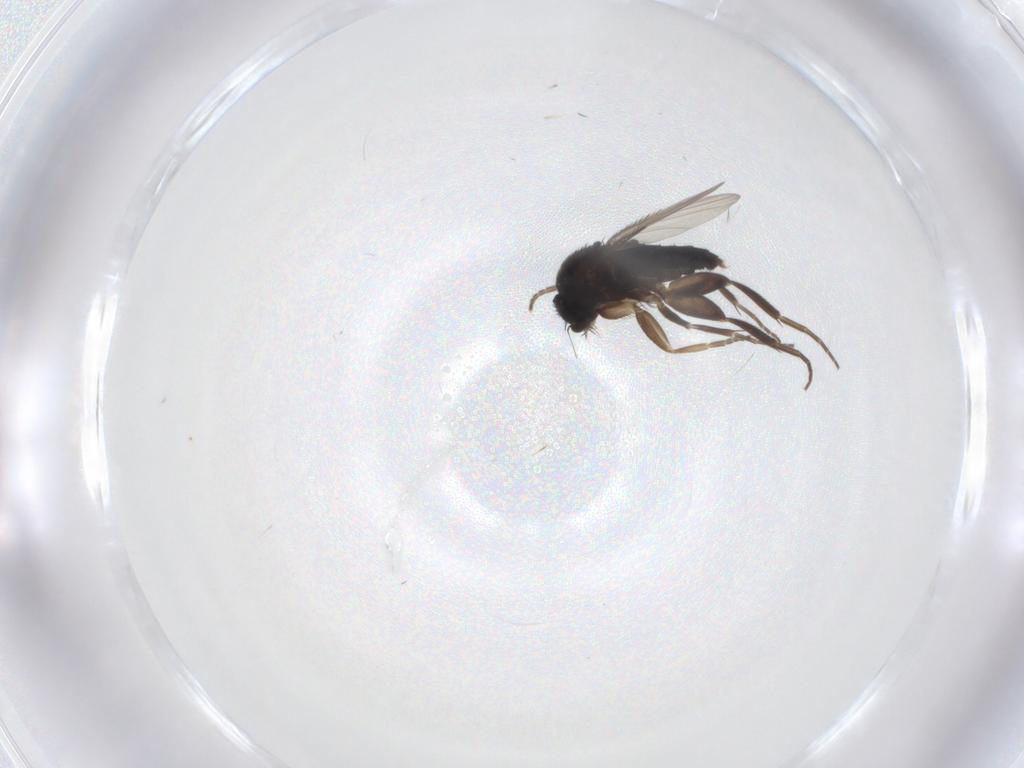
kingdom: Animalia
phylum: Arthropoda
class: Insecta
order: Diptera
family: Phoridae
